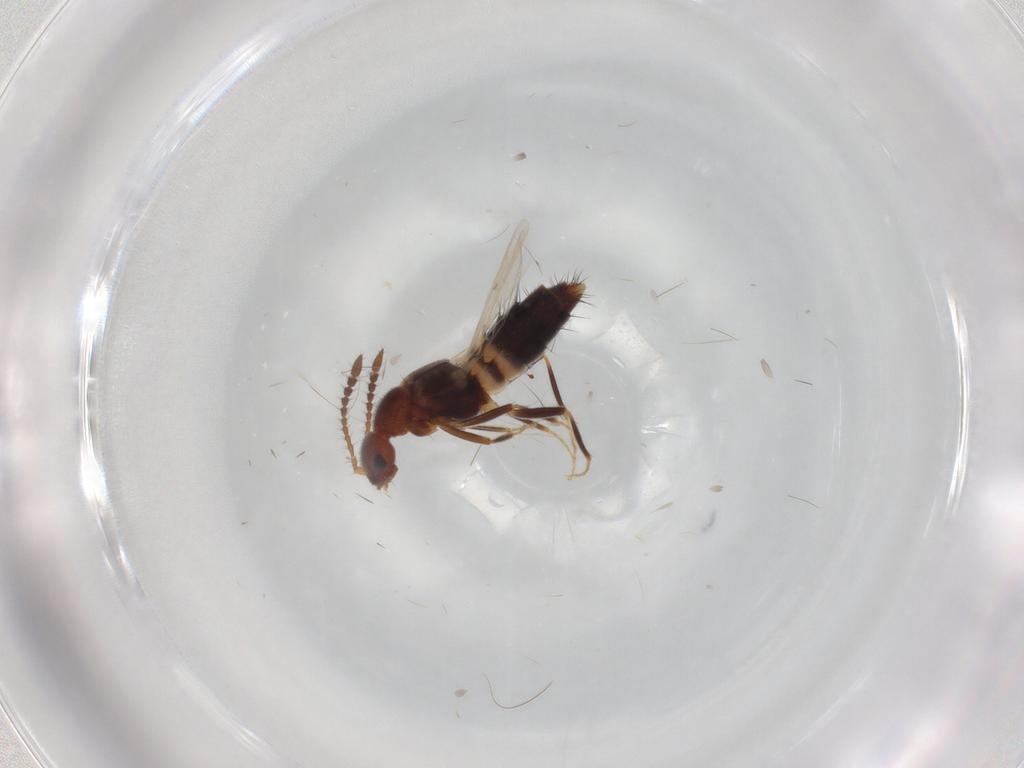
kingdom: Animalia
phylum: Arthropoda
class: Insecta
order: Coleoptera
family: Staphylinidae
